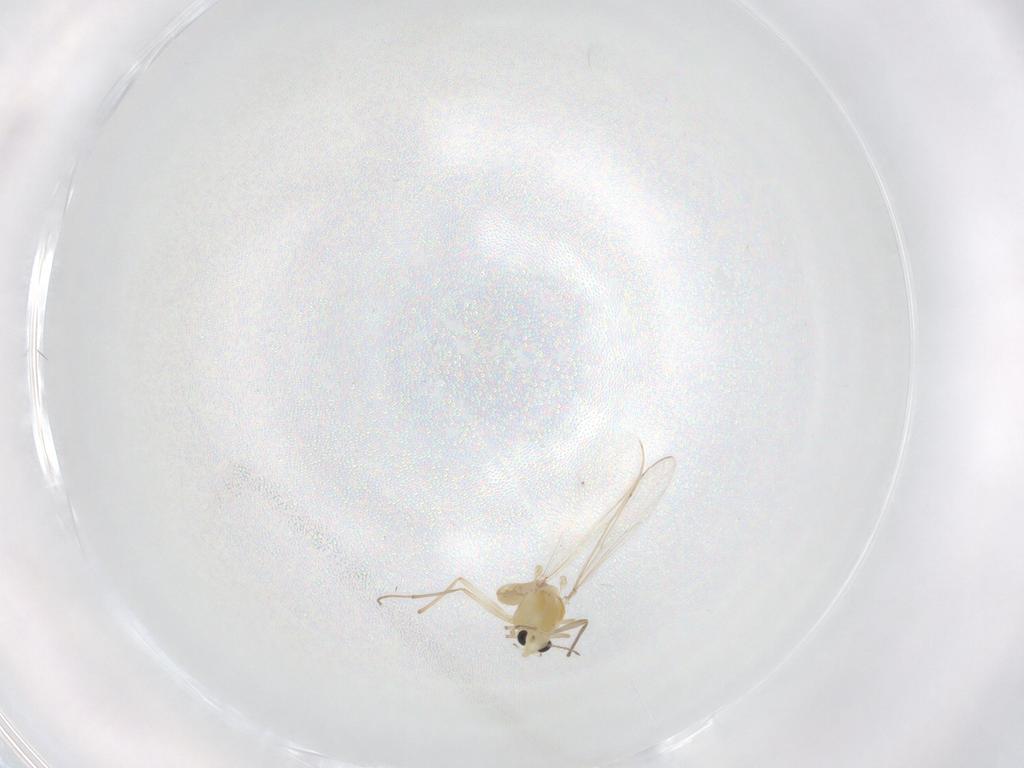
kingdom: Animalia
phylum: Arthropoda
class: Insecta
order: Diptera
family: Chironomidae
